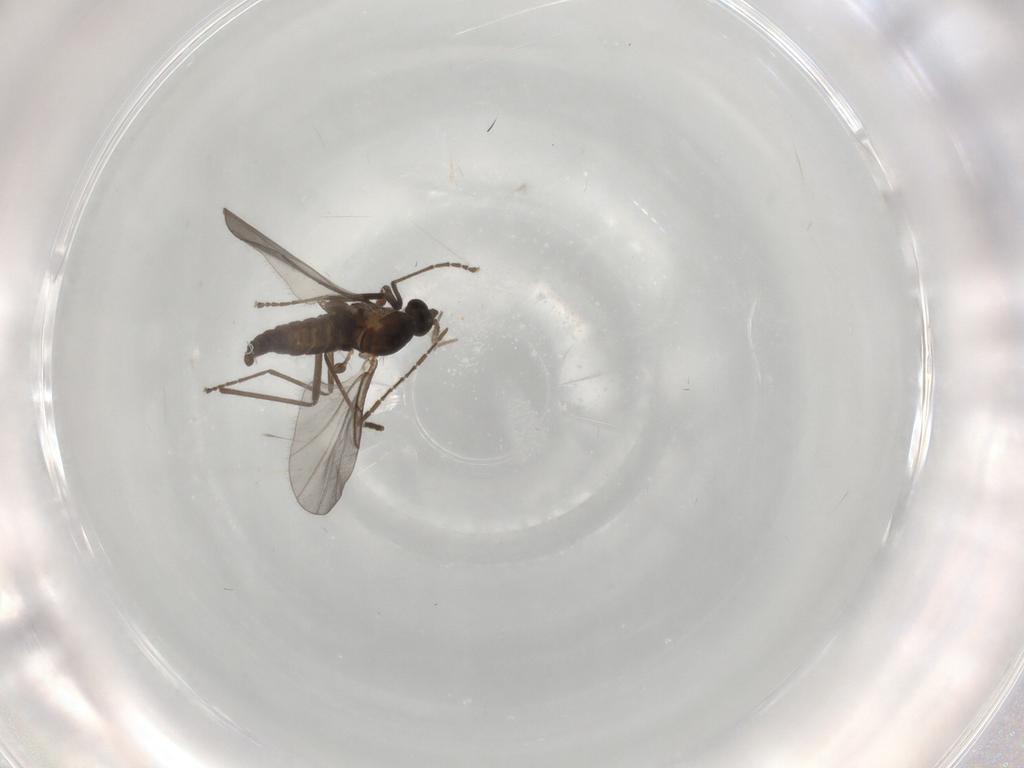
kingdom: Animalia
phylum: Arthropoda
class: Insecta
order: Diptera
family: Sciaridae
